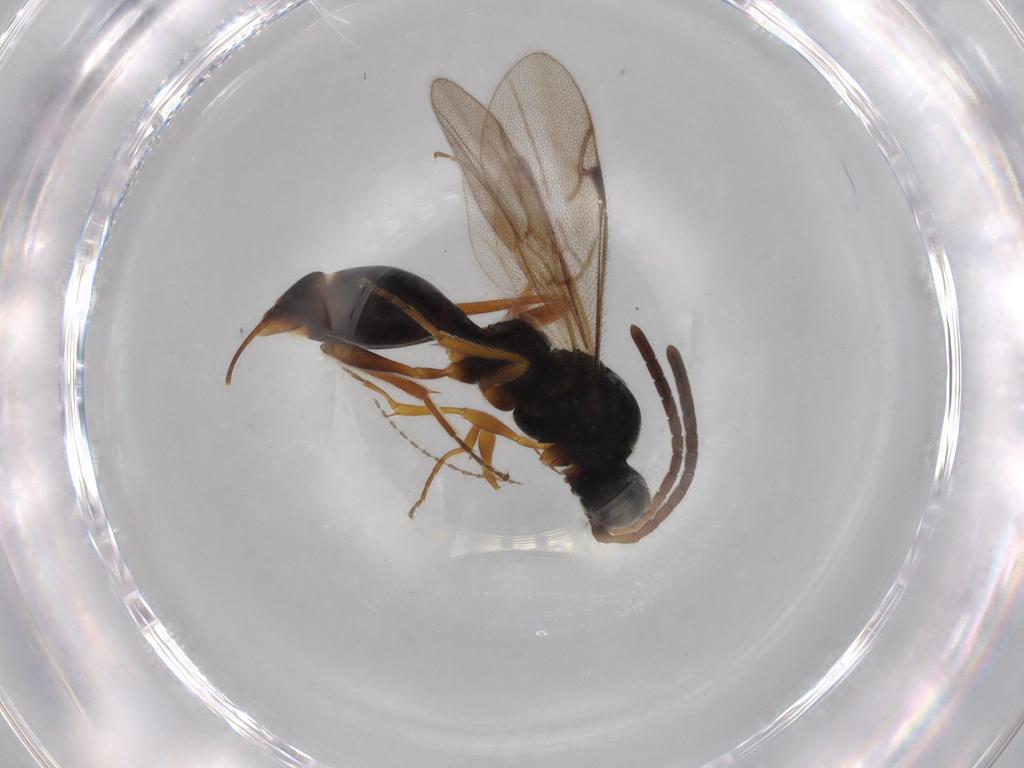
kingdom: Animalia
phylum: Arthropoda
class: Insecta
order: Hymenoptera
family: Proctotrupidae
